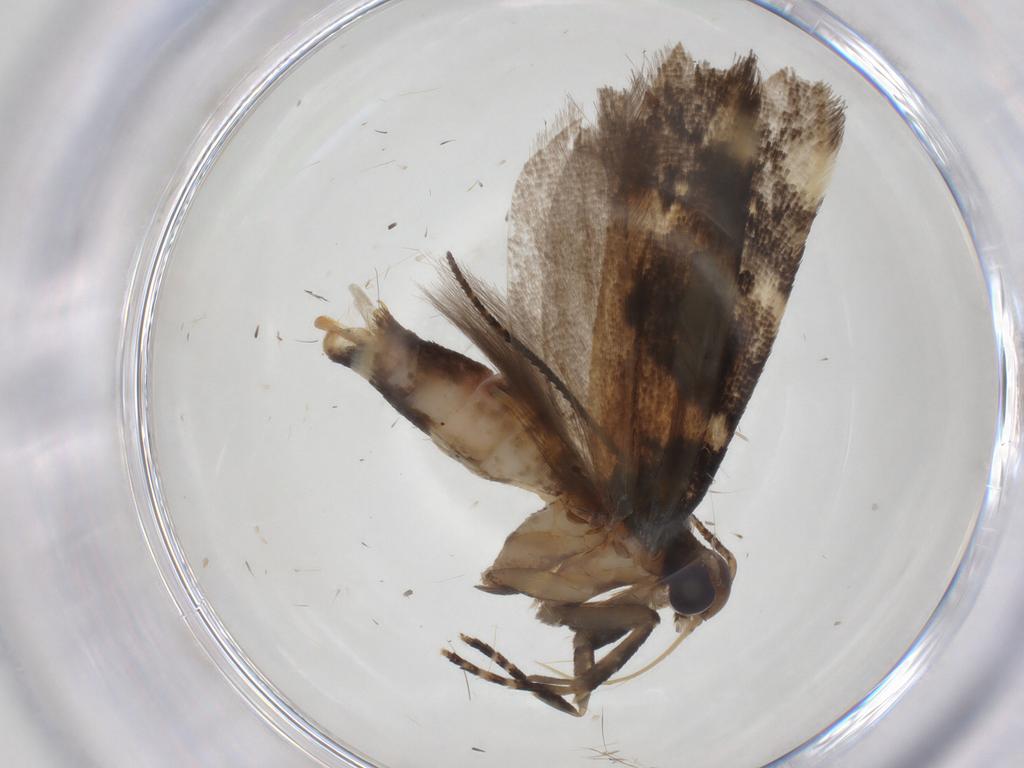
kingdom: Animalia
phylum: Arthropoda
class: Insecta
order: Lepidoptera
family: Gelechiidae
